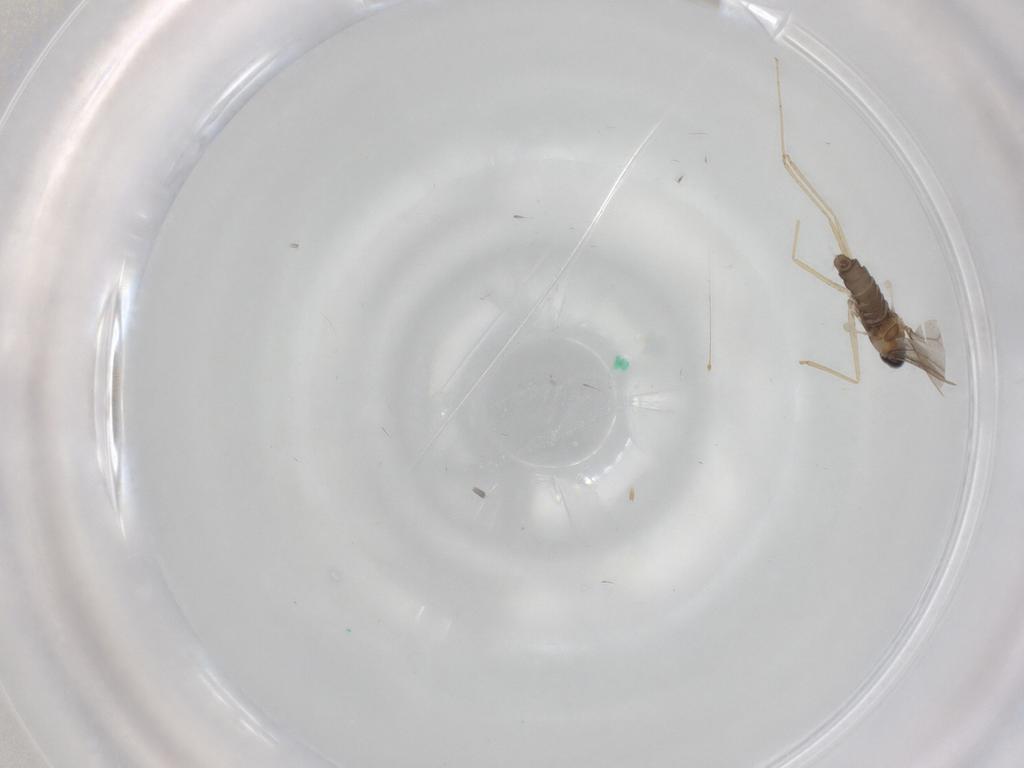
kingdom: Animalia
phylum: Arthropoda
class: Insecta
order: Diptera
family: Cecidomyiidae
